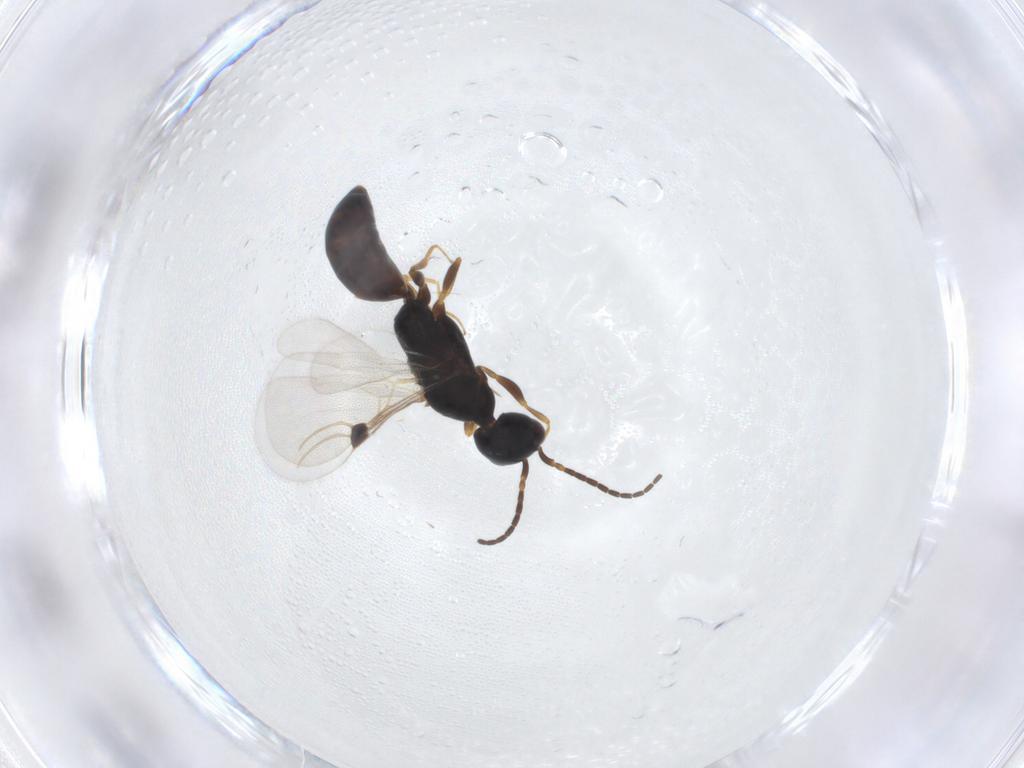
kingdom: Animalia
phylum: Arthropoda
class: Insecta
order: Hymenoptera
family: Bethylidae
